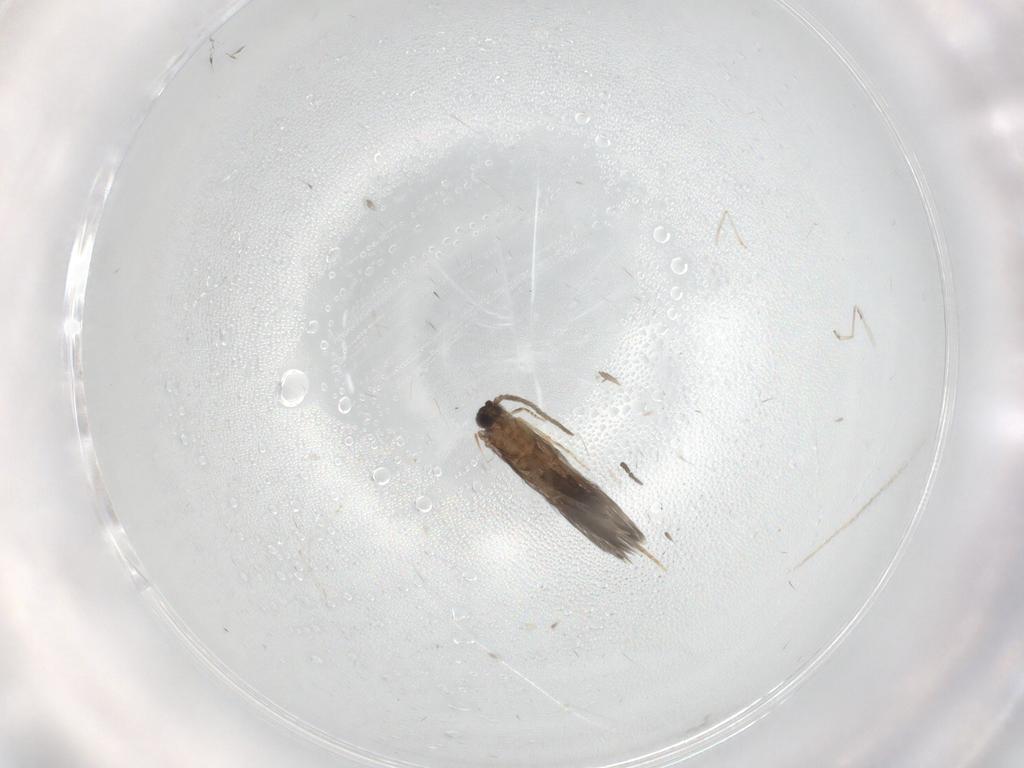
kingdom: Animalia
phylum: Arthropoda
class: Insecta
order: Trichoptera
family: Hydroptilidae
